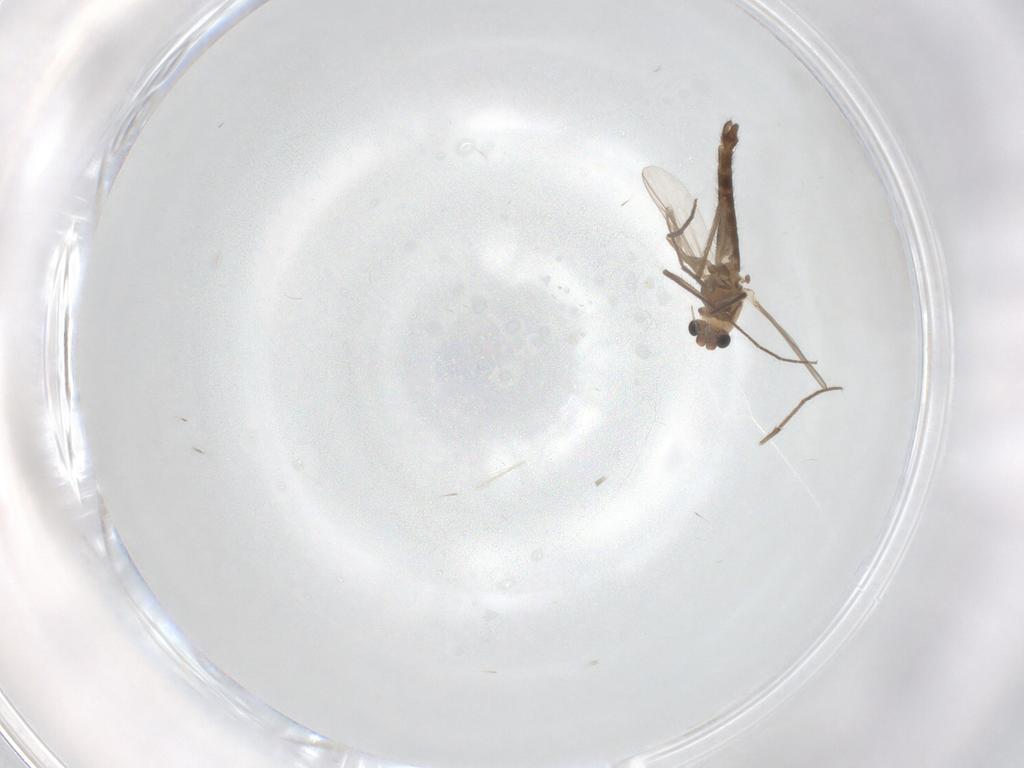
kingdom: Animalia
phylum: Arthropoda
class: Insecta
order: Diptera
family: Chironomidae
